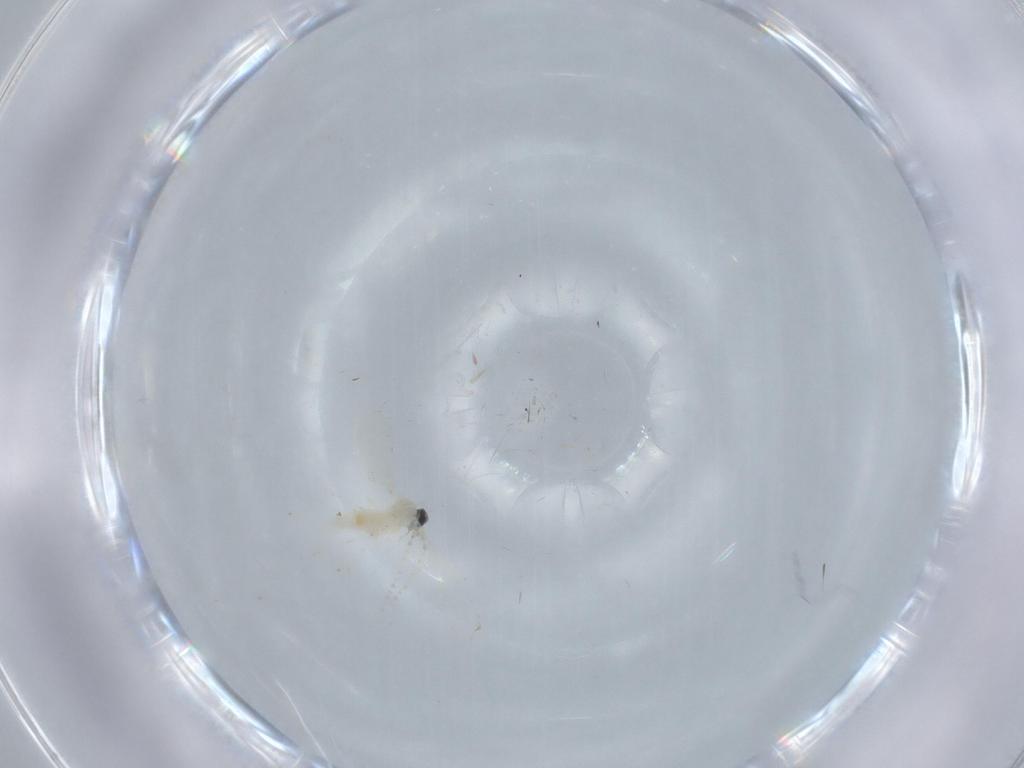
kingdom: Animalia
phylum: Arthropoda
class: Insecta
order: Diptera
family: Cecidomyiidae
